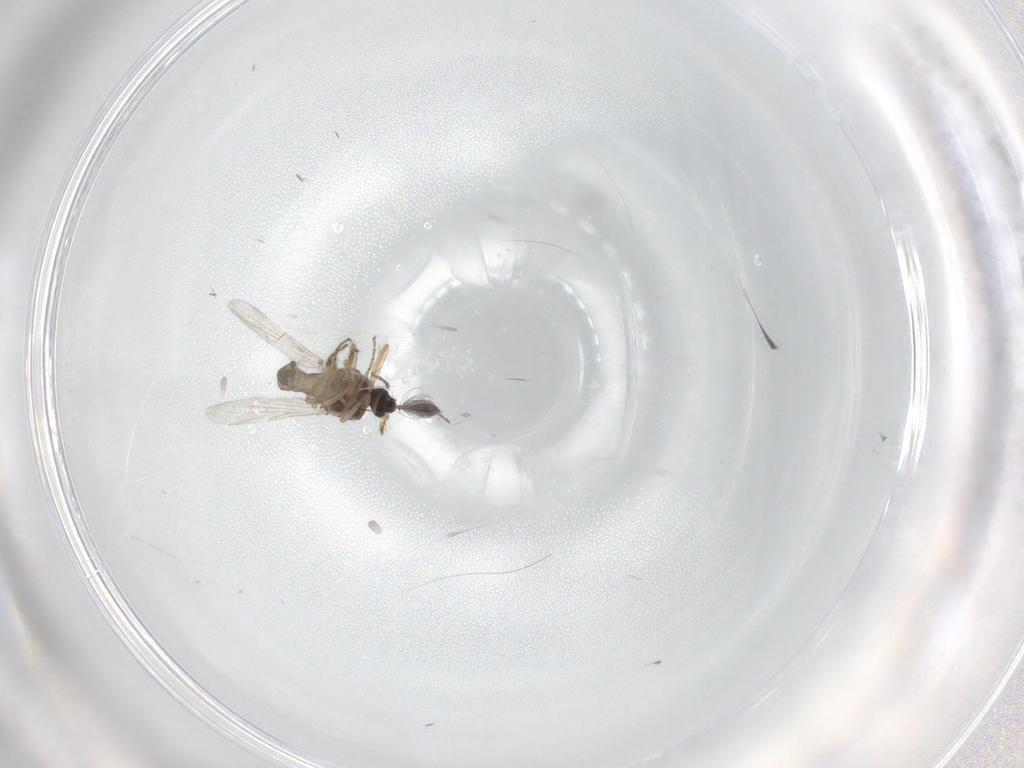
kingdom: Animalia
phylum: Arthropoda
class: Insecta
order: Diptera
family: Ceratopogonidae
